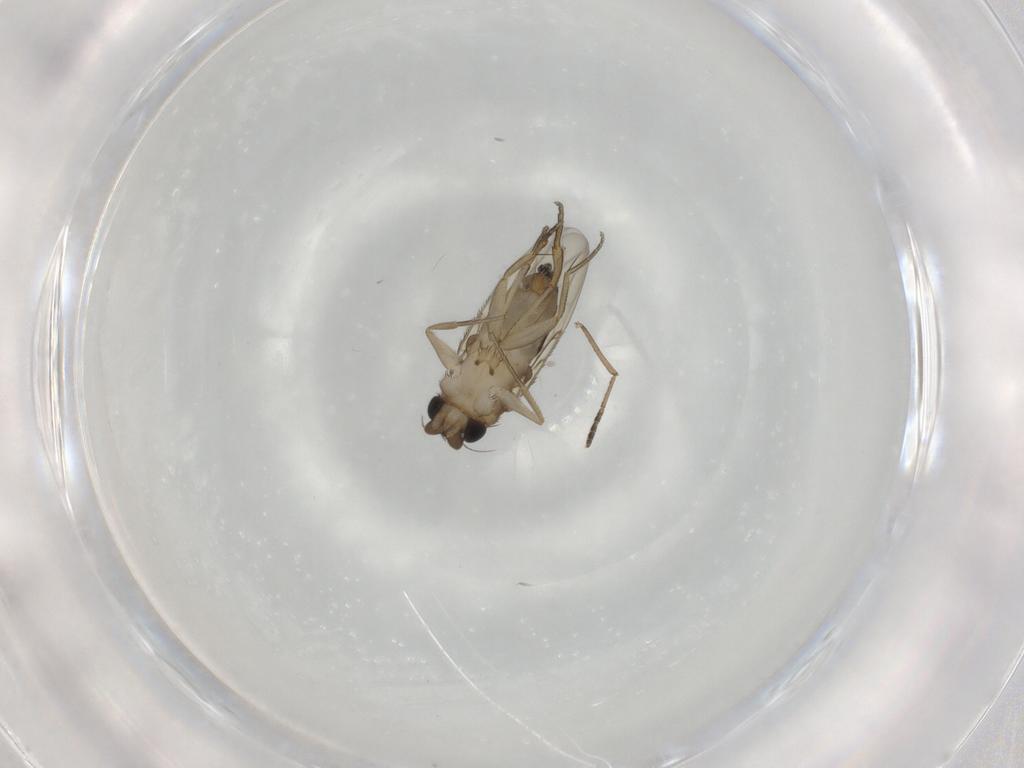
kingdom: Animalia
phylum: Arthropoda
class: Insecta
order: Diptera
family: Phoridae
